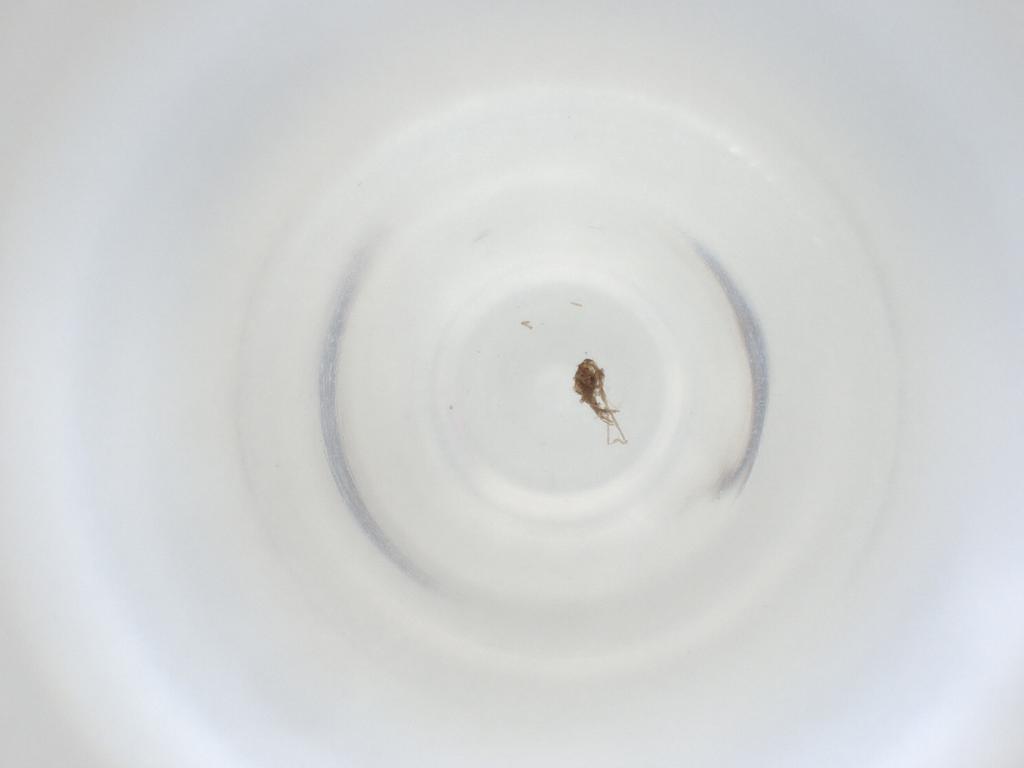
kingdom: Animalia
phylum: Arthropoda
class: Insecta
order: Diptera
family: Cecidomyiidae
